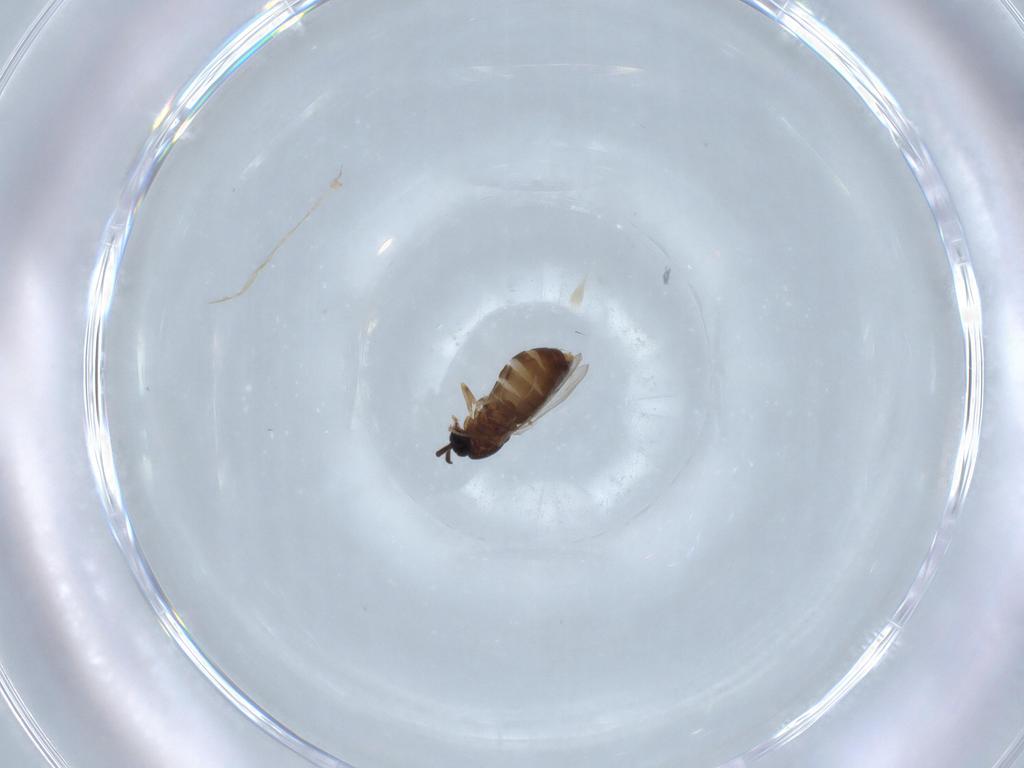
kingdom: Animalia
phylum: Arthropoda
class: Insecta
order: Diptera
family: Scatopsidae
